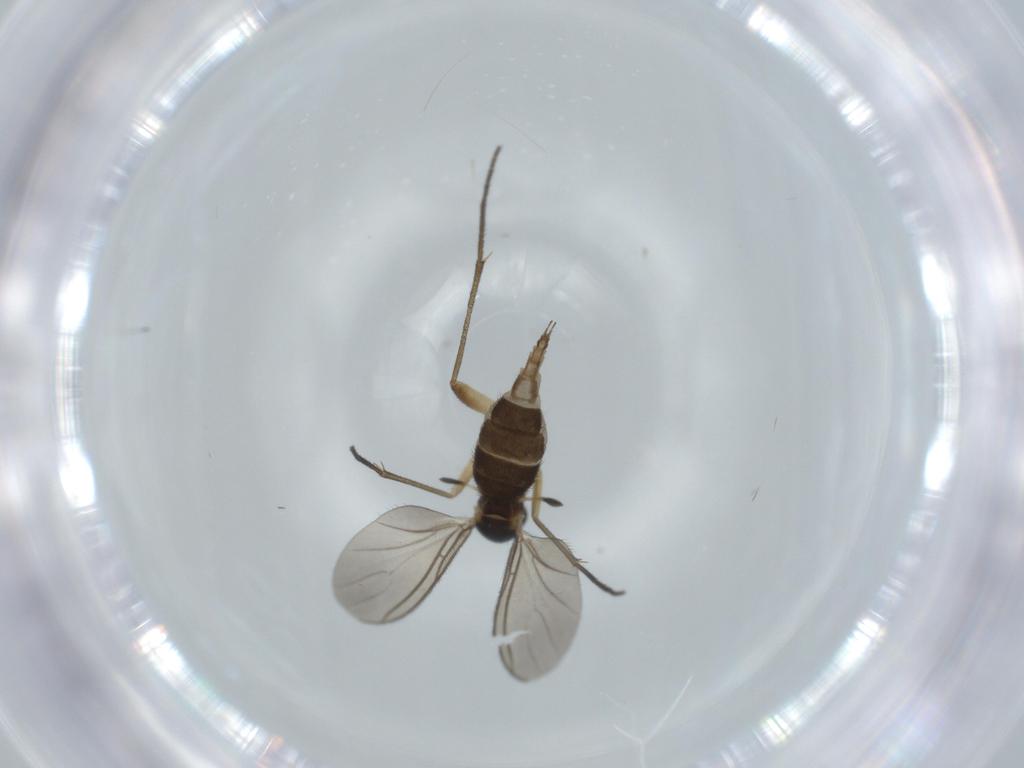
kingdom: Animalia
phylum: Arthropoda
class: Insecta
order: Diptera
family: Sciaridae
